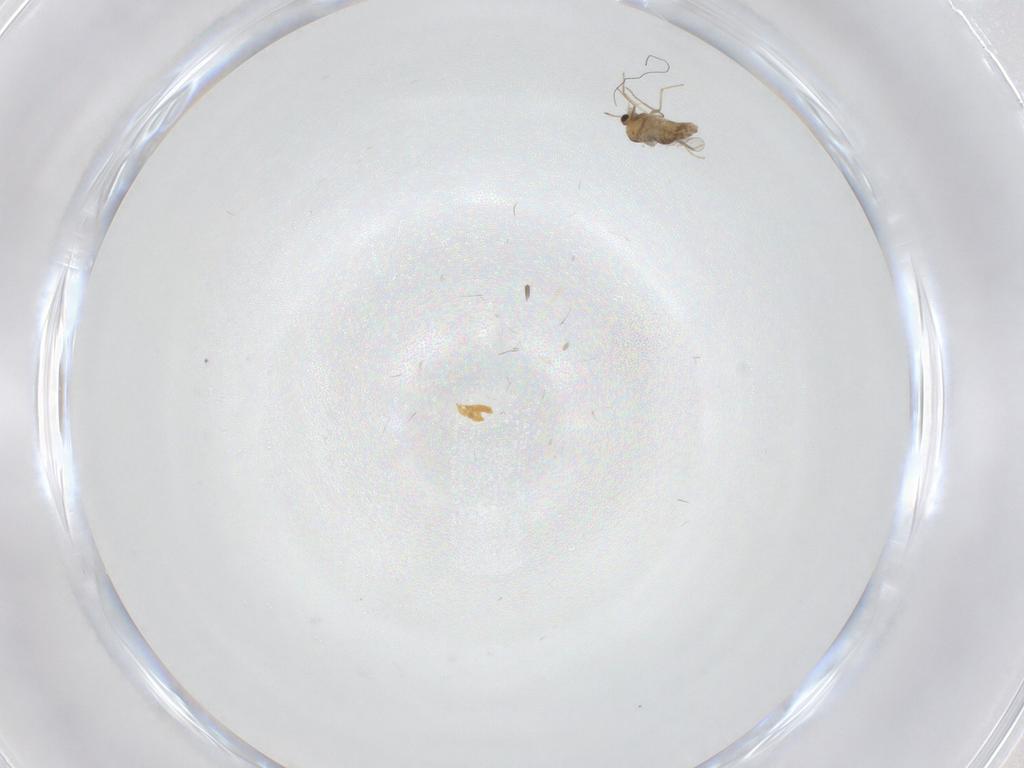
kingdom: Animalia
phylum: Arthropoda
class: Insecta
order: Diptera
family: Chironomidae
